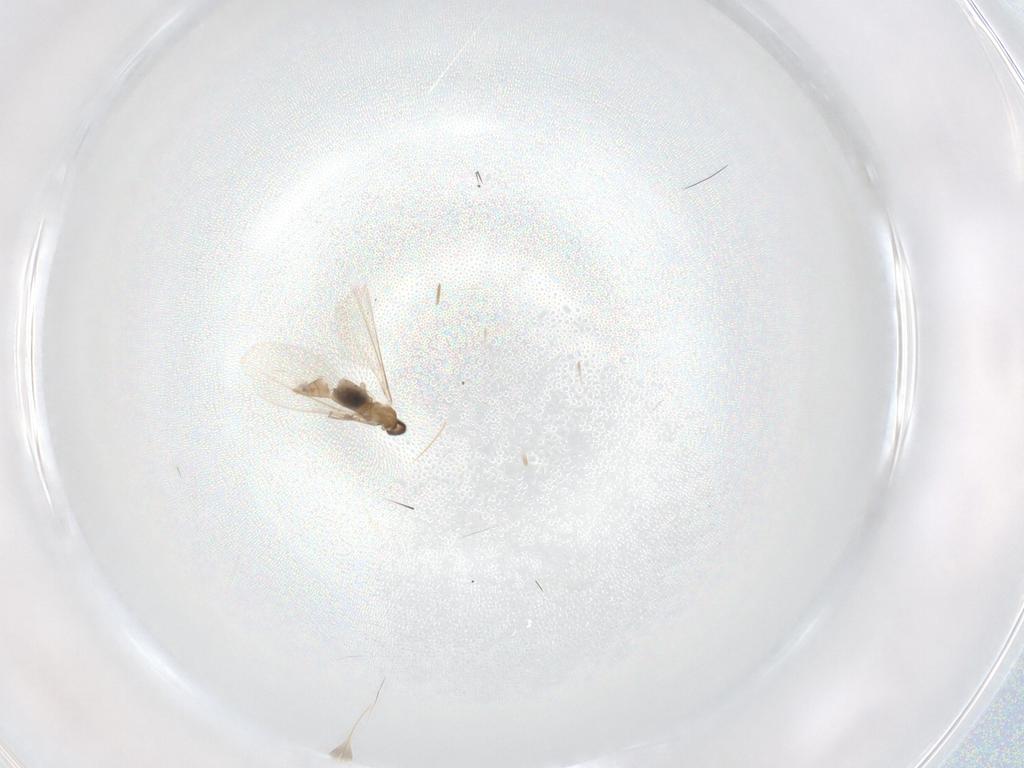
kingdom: Animalia
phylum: Arthropoda
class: Insecta
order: Diptera
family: Cecidomyiidae
